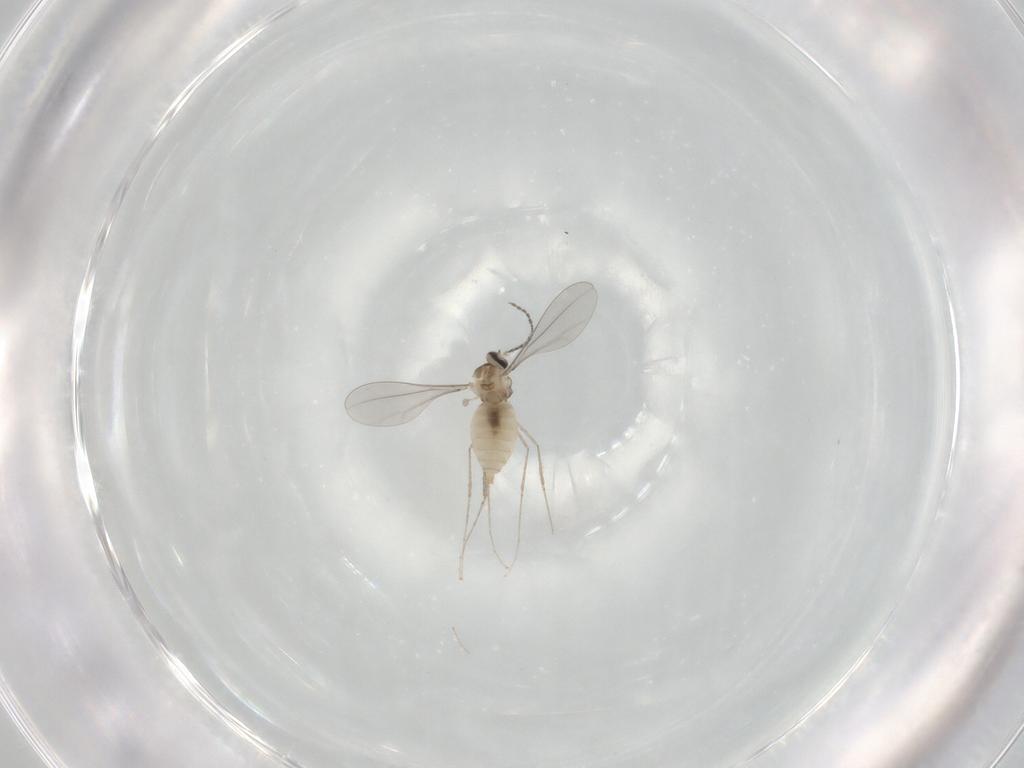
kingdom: Animalia
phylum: Arthropoda
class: Insecta
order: Diptera
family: Cecidomyiidae
